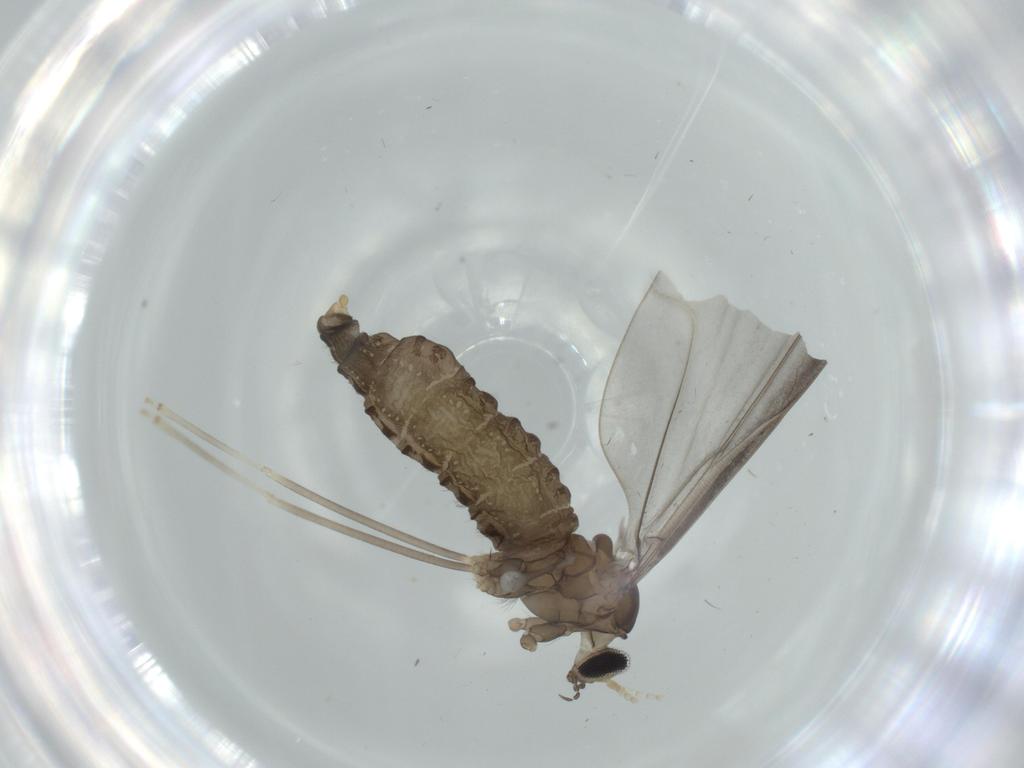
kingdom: Animalia
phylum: Arthropoda
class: Insecta
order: Diptera
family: Cecidomyiidae
